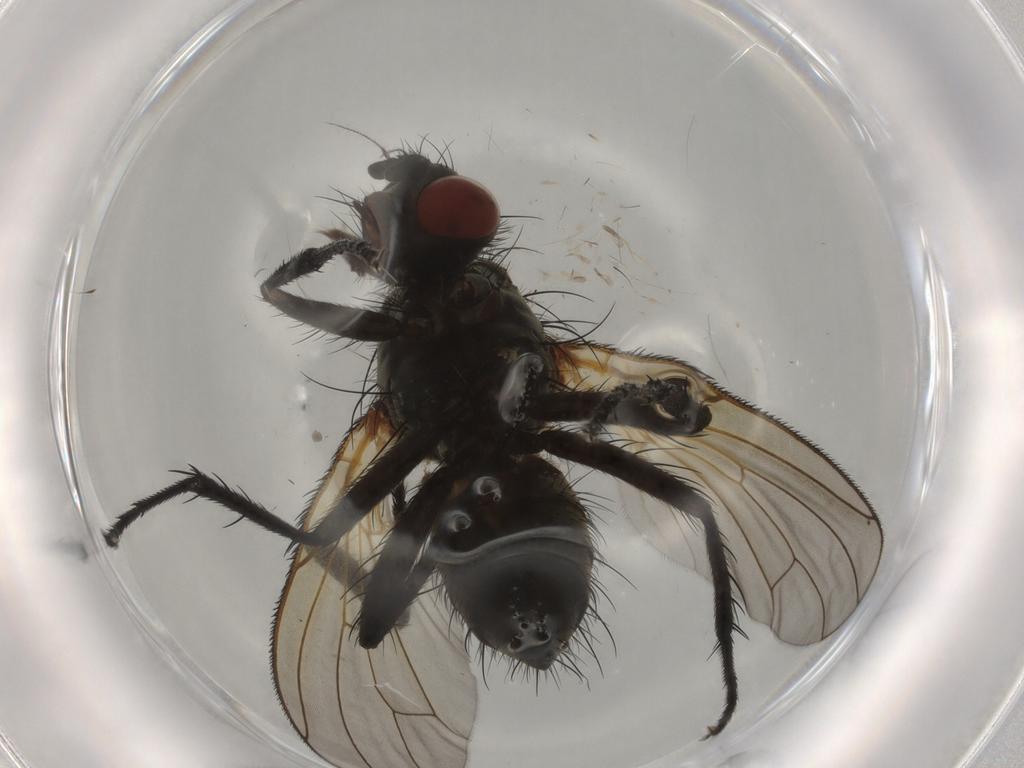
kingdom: Animalia
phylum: Arthropoda
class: Insecta
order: Diptera
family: Anthomyiidae
